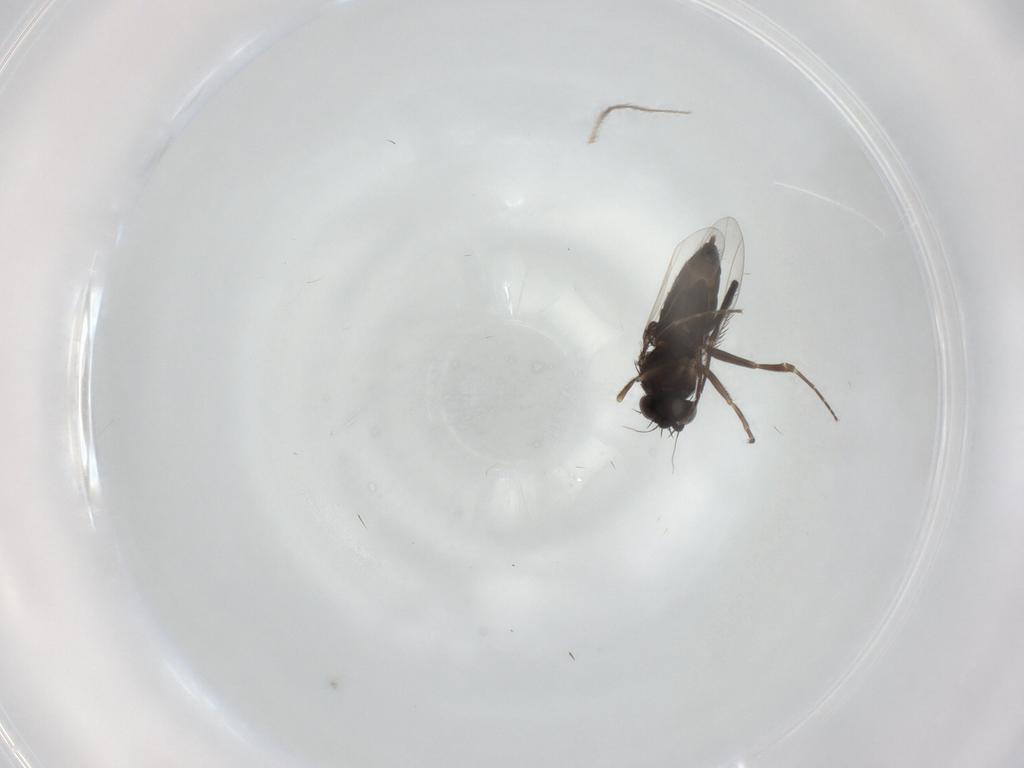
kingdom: Animalia
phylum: Arthropoda
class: Insecta
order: Diptera
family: Phoridae
